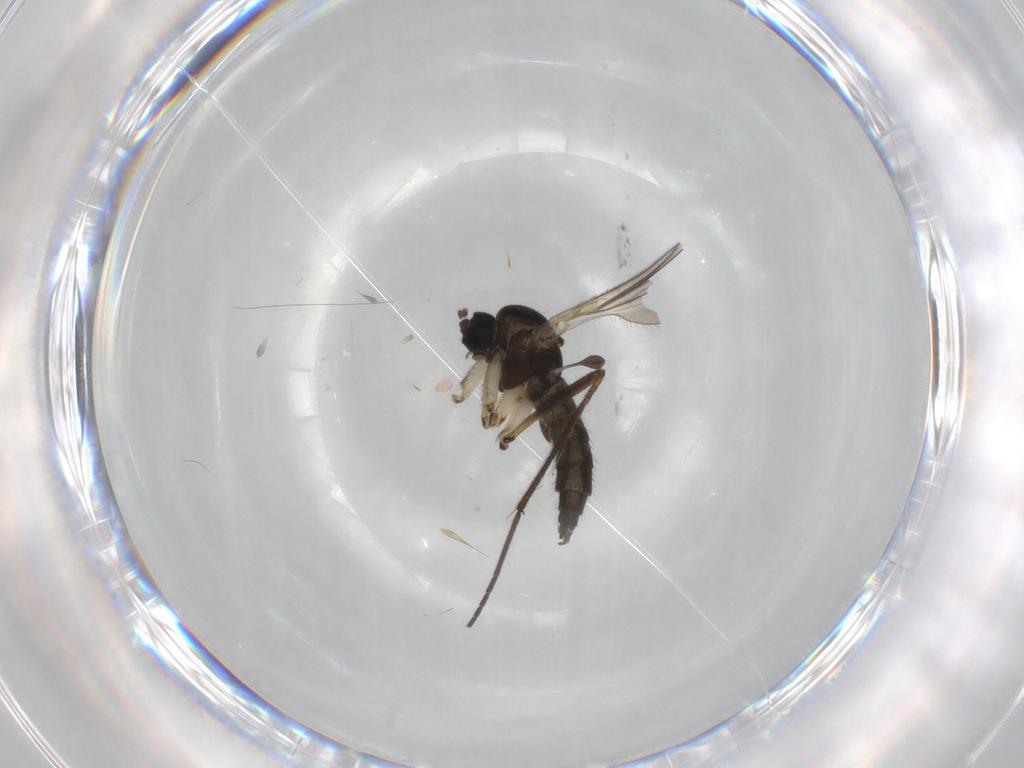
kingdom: Animalia
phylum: Arthropoda
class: Insecta
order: Diptera
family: Sciaridae
